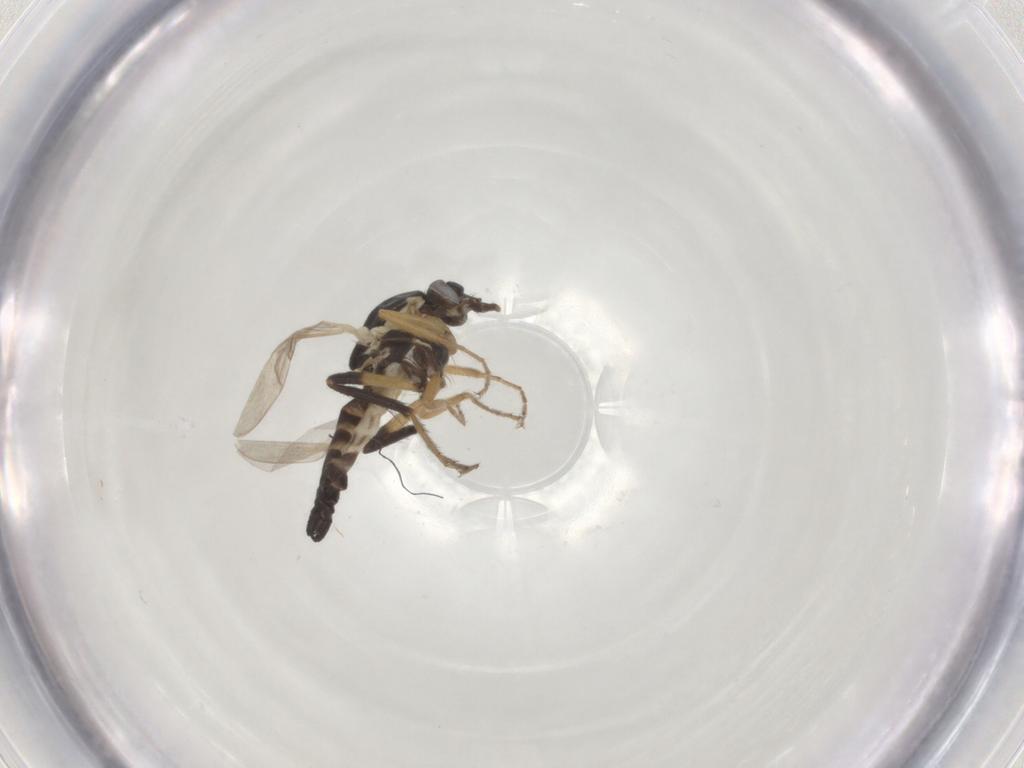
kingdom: Animalia
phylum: Arthropoda
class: Insecta
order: Diptera
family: Ceratopogonidae
